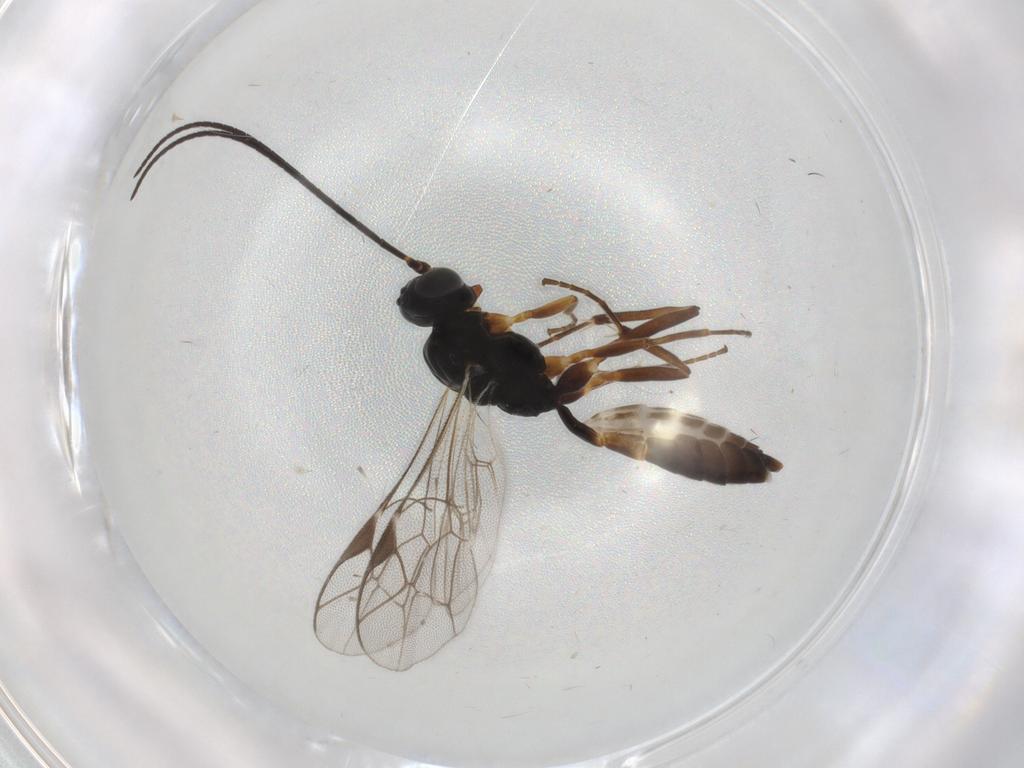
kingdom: Animalia
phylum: Arthropoda
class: Insecta
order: Hymenoptera
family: Ichneumonidae
